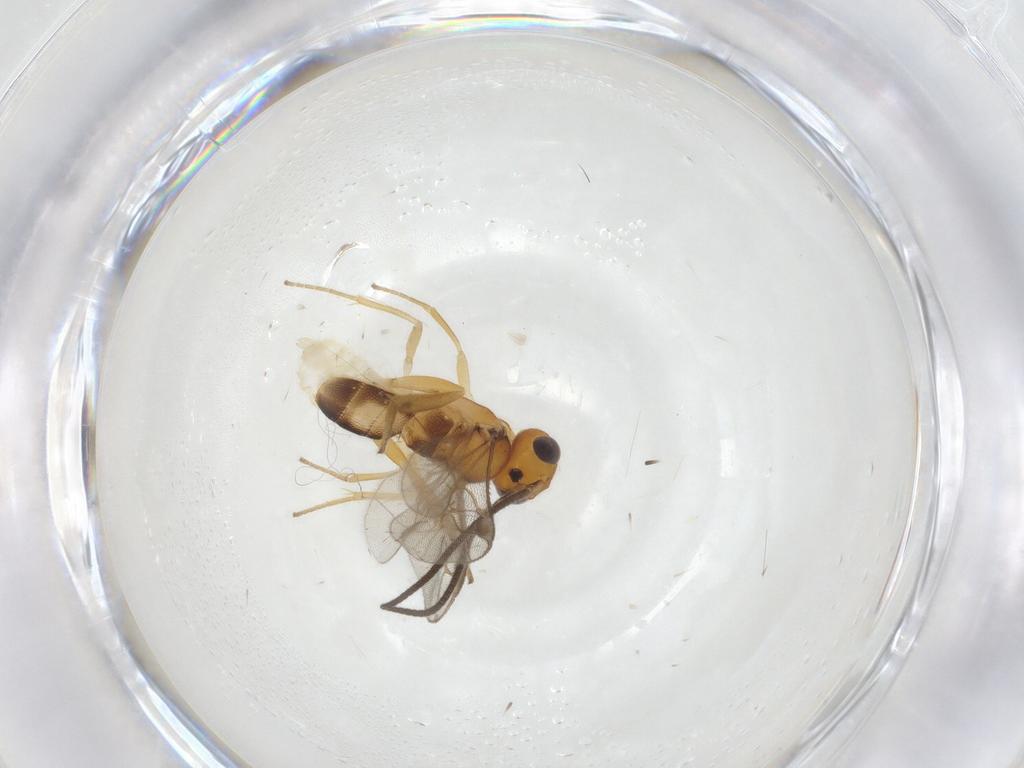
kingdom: Animalia
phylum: Arthropoda
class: Insecta
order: Hymenoptera
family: Braconidae
